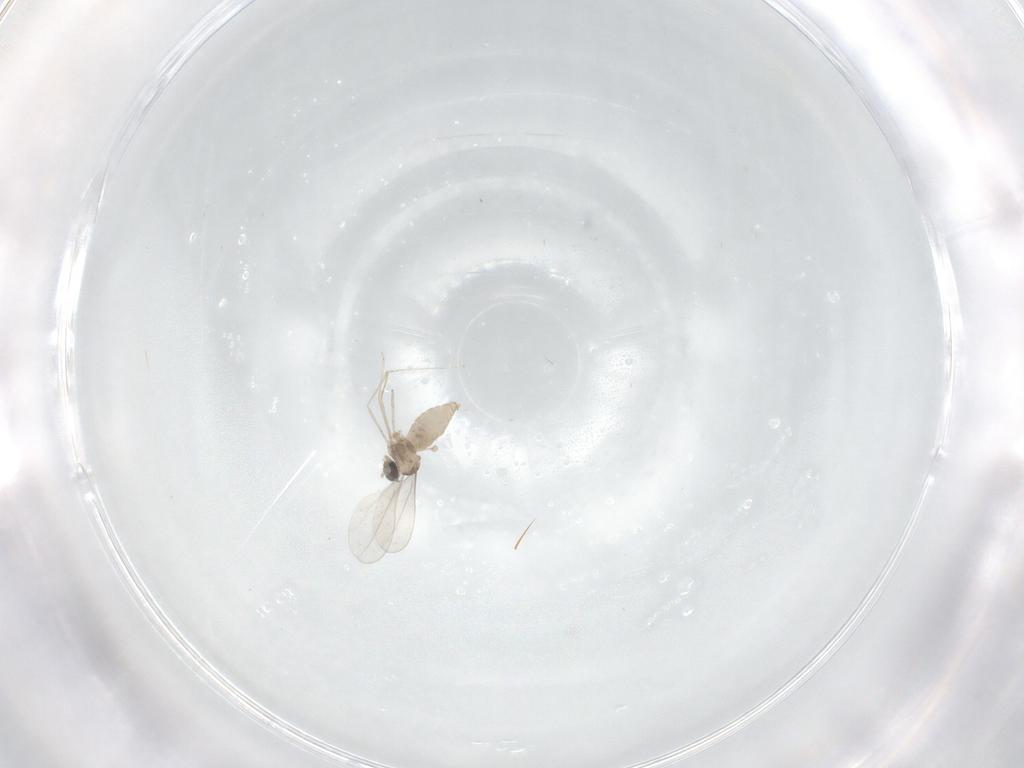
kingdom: Animalia
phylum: Arthropoda
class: Insecta
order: Diptera
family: Cecidomyiidae
